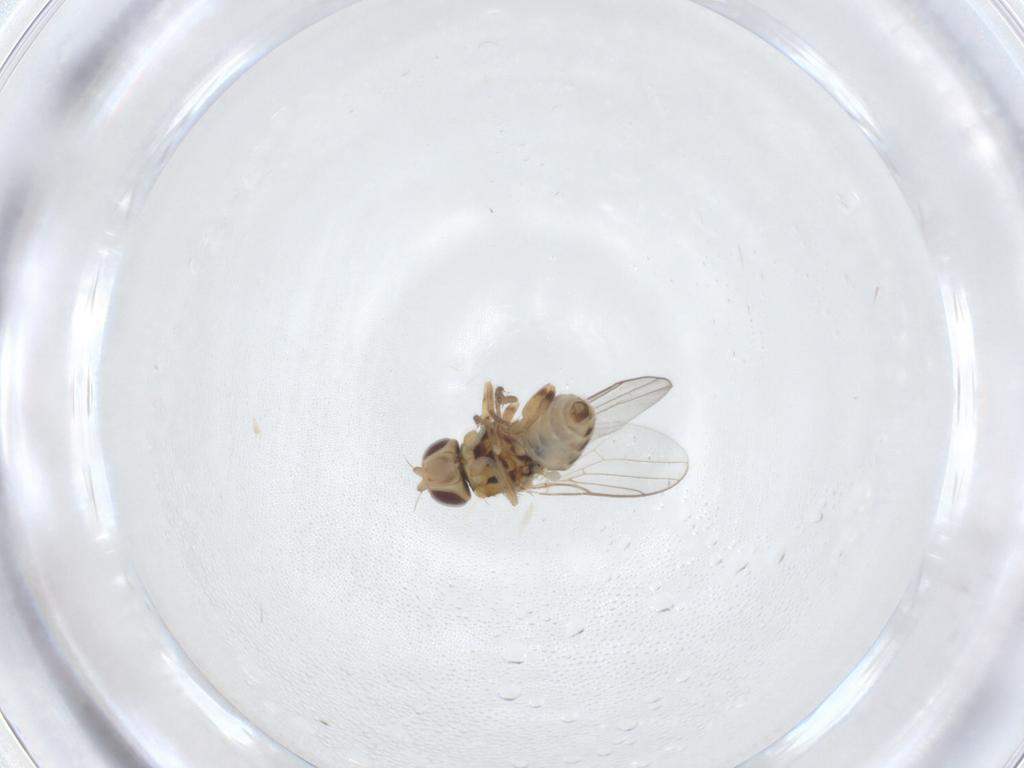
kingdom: Animalia
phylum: Arthropoda
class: Insecta
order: Diptera
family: Chloropidae
